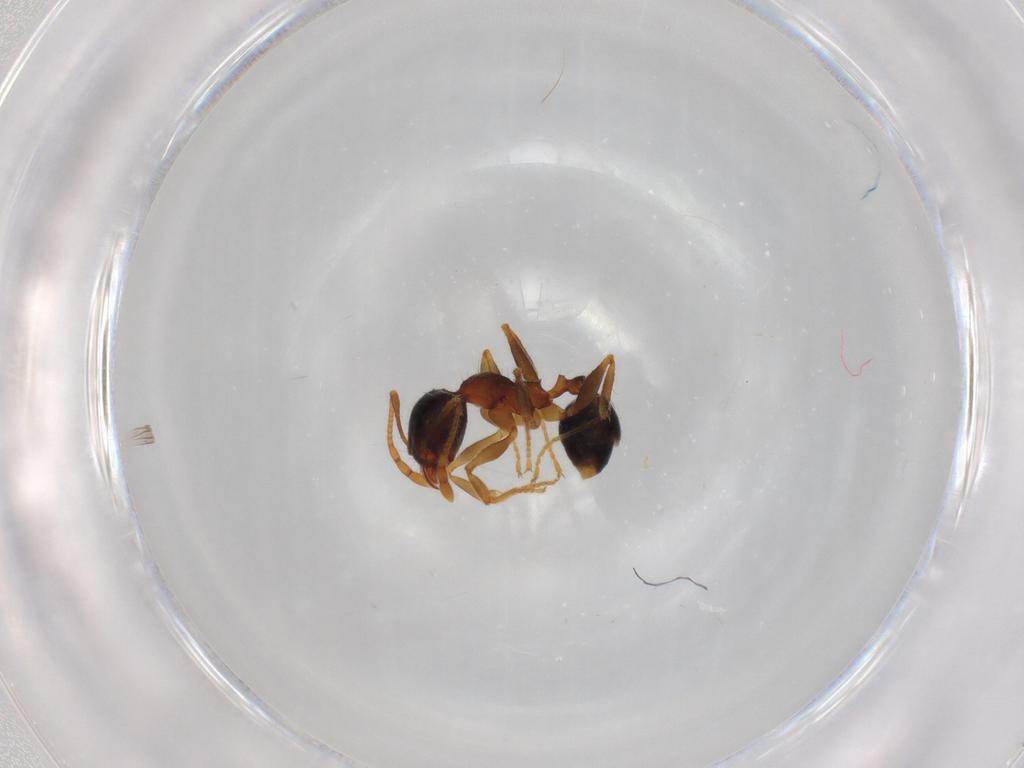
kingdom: Animalia
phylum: Arthropoda
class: Insecta
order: Hymenoptera
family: Formicidae
